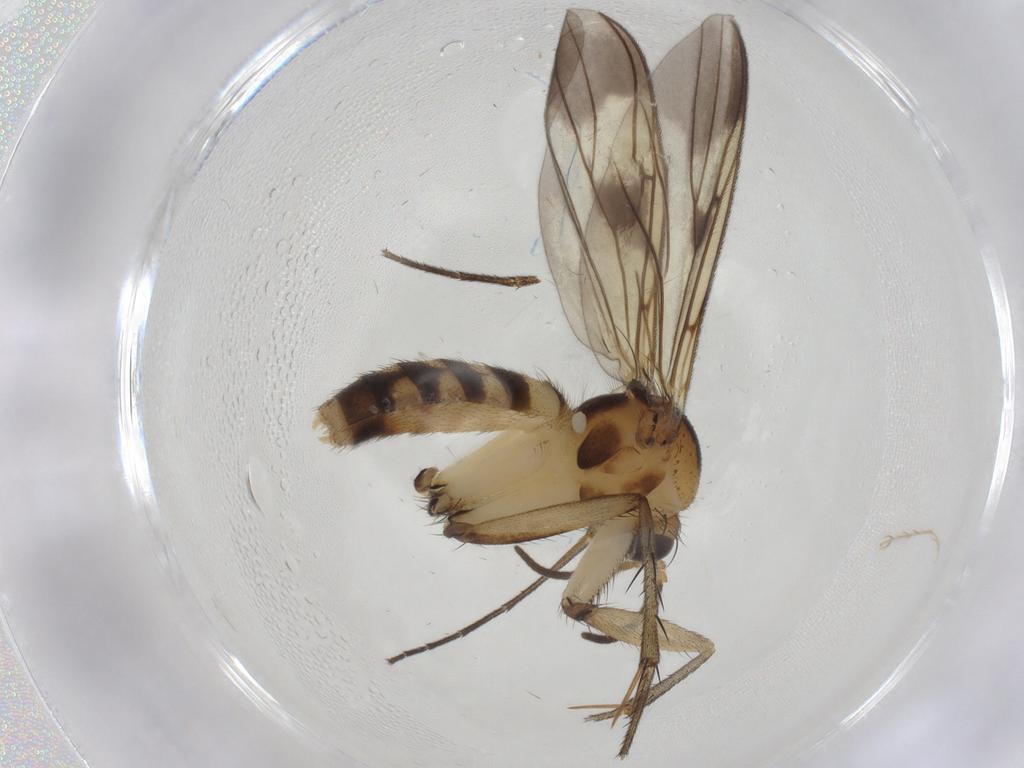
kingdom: Animalia
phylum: Arthropoda
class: Insecta
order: Diptera
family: Mycetophilidae
